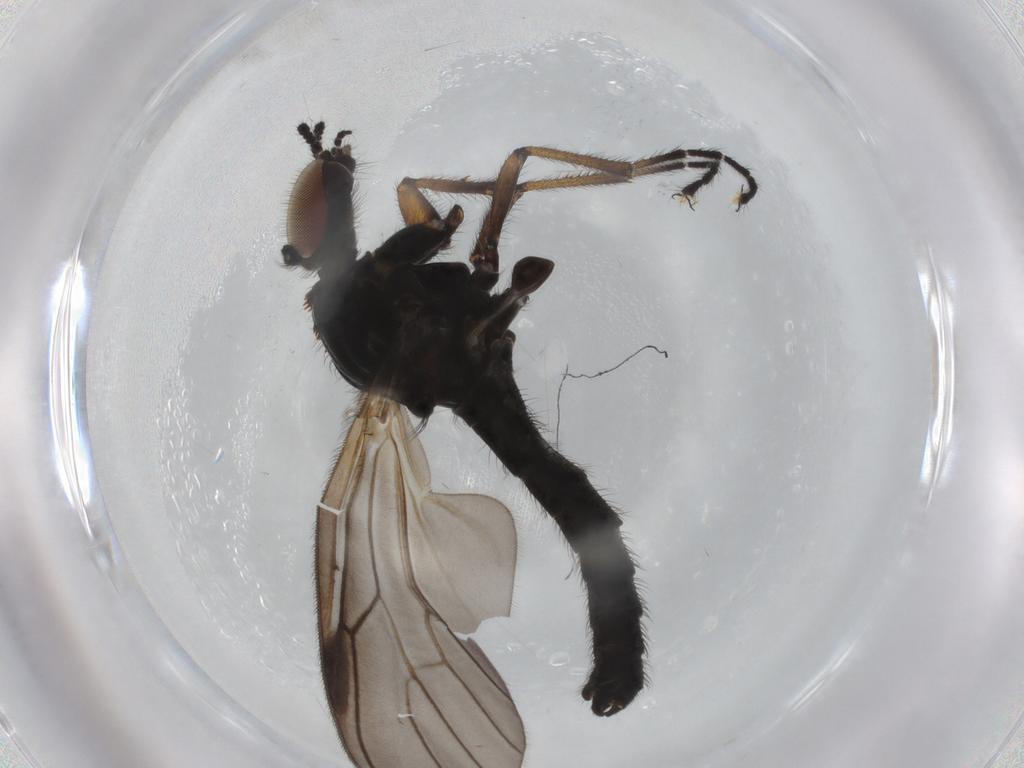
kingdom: Animalia
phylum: Arthropoda
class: Insecta
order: Diptera
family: Bibionidae
